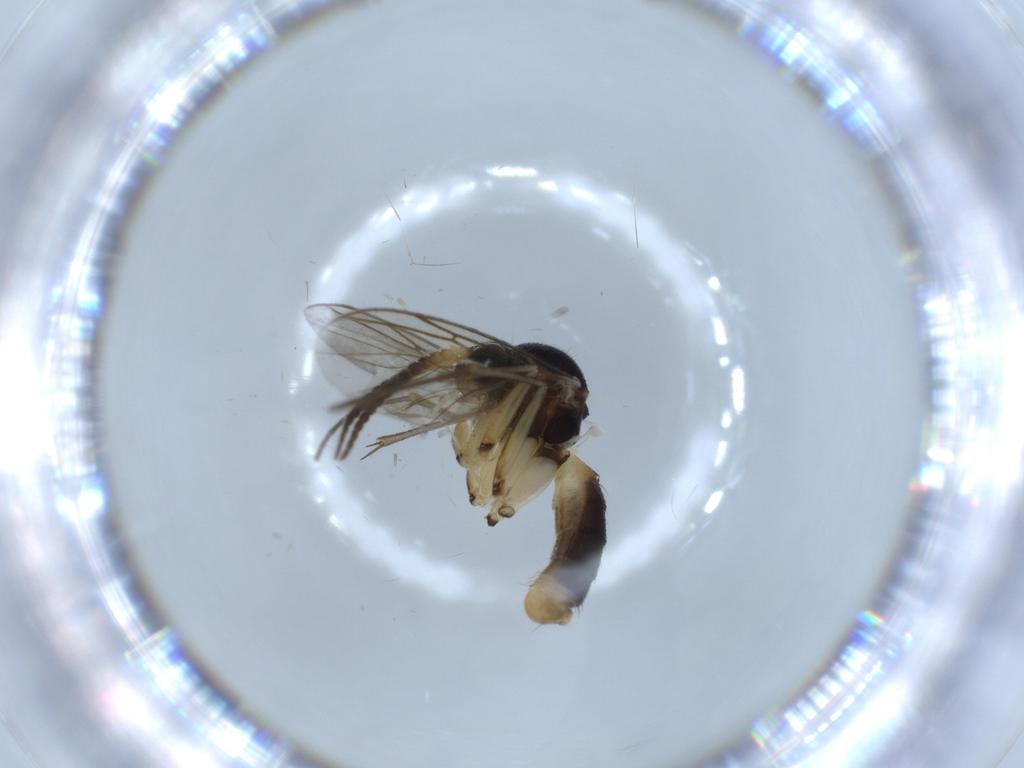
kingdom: Animalia
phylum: Arthropoda
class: Insecta
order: Diptera
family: Mycetophilidae
